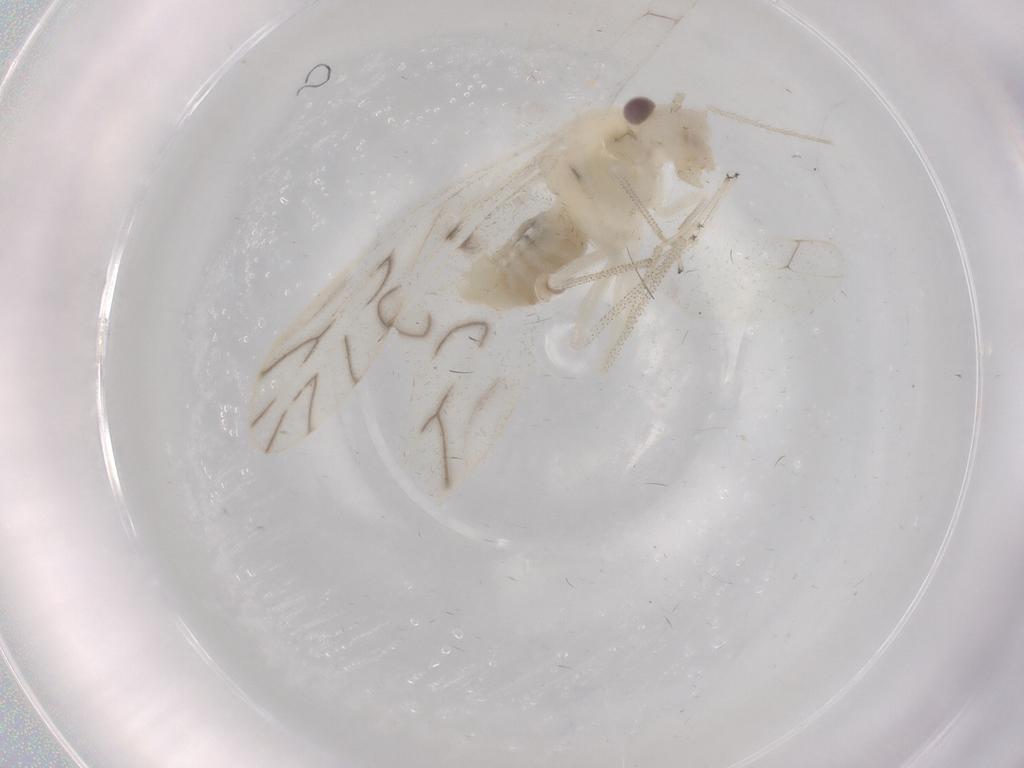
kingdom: Animalia
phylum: Arthropoda
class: Insecta
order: Psocodea
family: Caeciliusidae
